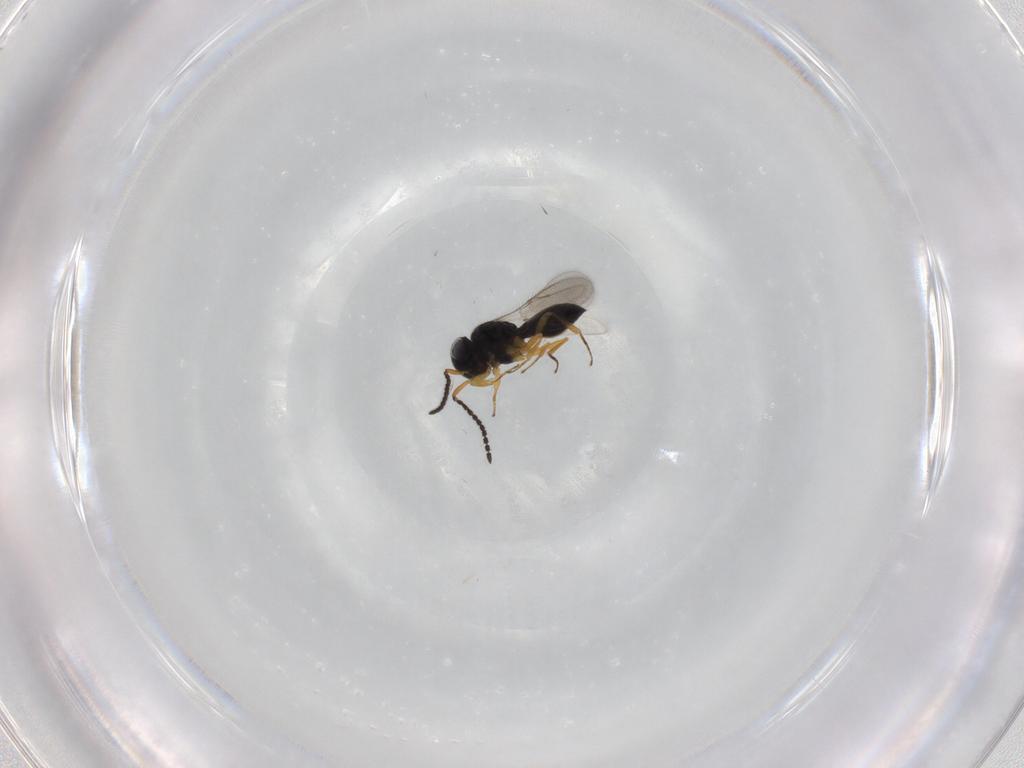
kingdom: Animalia
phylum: Arthropoda
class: Insecta
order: Hymenoptera
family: Scelionidae
